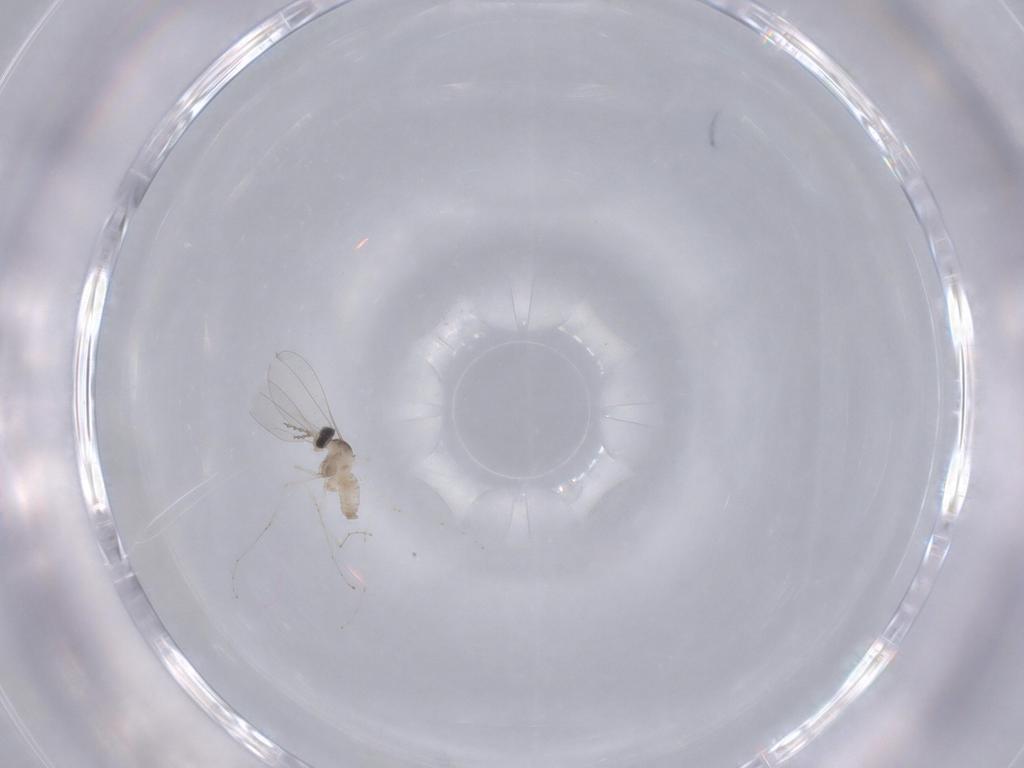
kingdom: Animalia
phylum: Arthropoda
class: Insecta
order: Diptera
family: Cecidomyiidae
